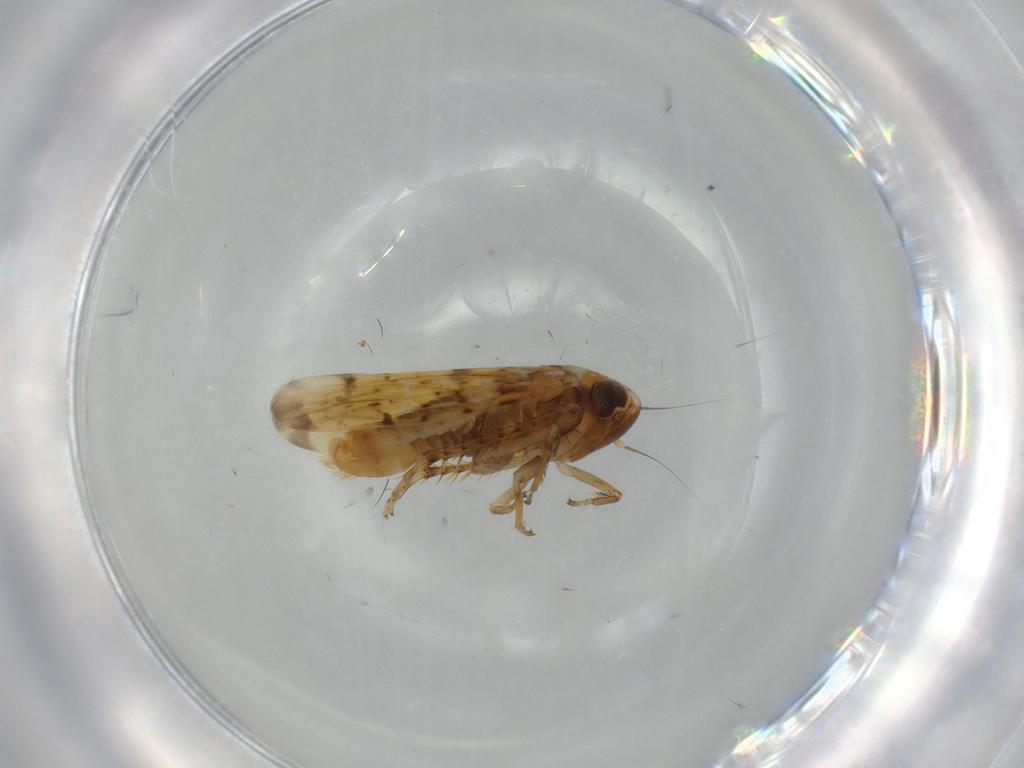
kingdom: Animalia
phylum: Arthropoda
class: Insecta
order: Hemiptera
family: Cicadellidae
